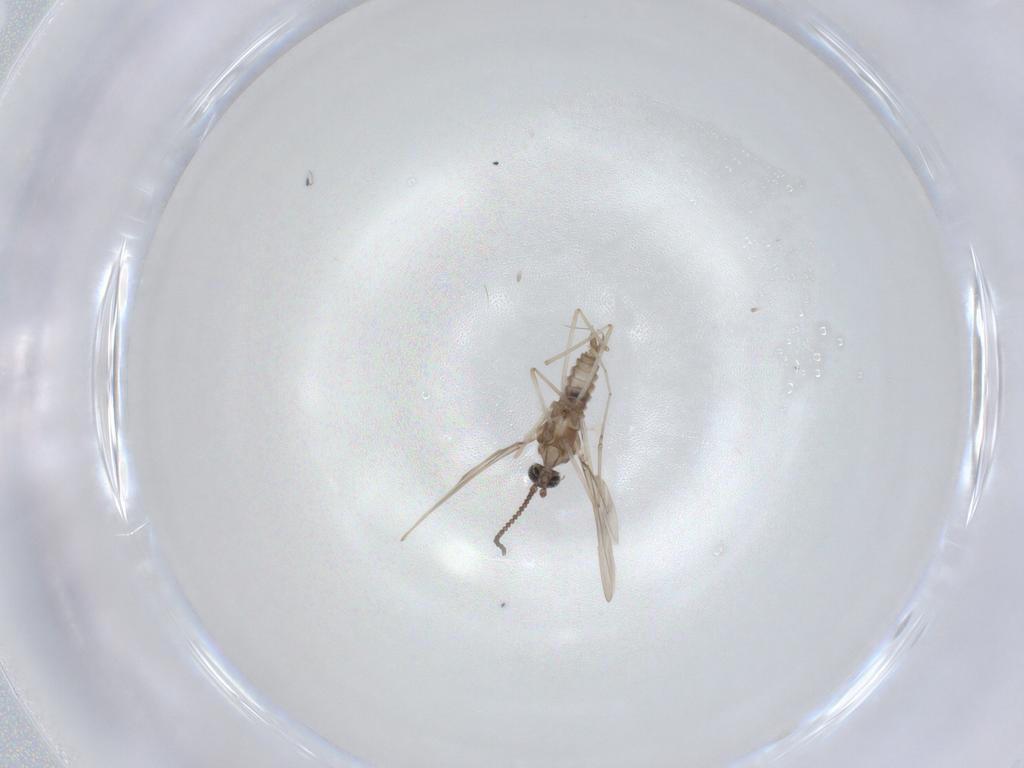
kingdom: Animalia
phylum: Arthropoda
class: Insecta
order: Diptera
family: Cecidomyiidae
